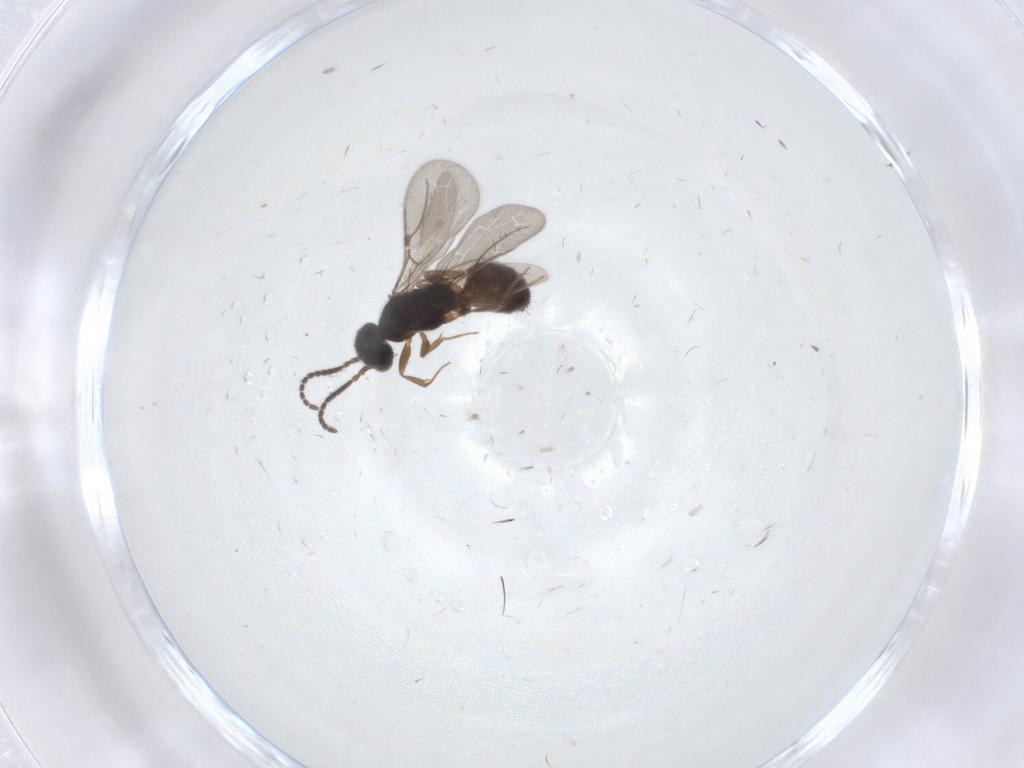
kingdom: Animalia
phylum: Arthropoda
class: Insecta
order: Hymenoptera
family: Bethylidae
